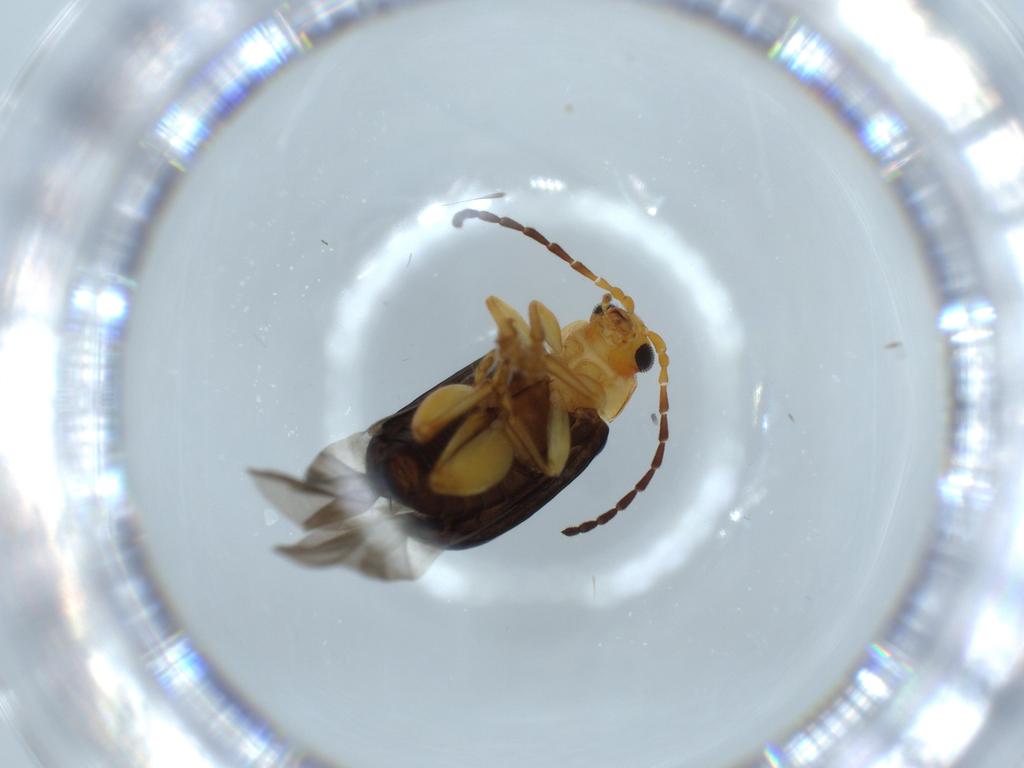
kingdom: Animalia
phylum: Arthropoda
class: Insecta
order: Coleoptera
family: Chrysomelidae
